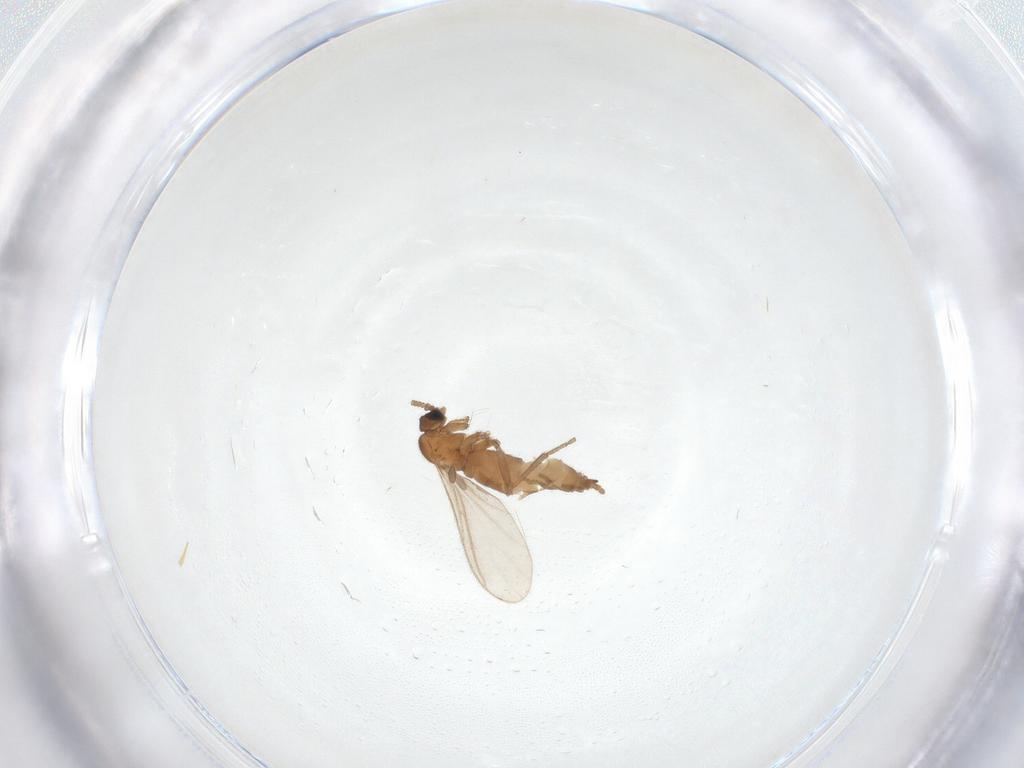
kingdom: Animalia
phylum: Arthropoda
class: Insecta
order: Diptera
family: Sciaridae
